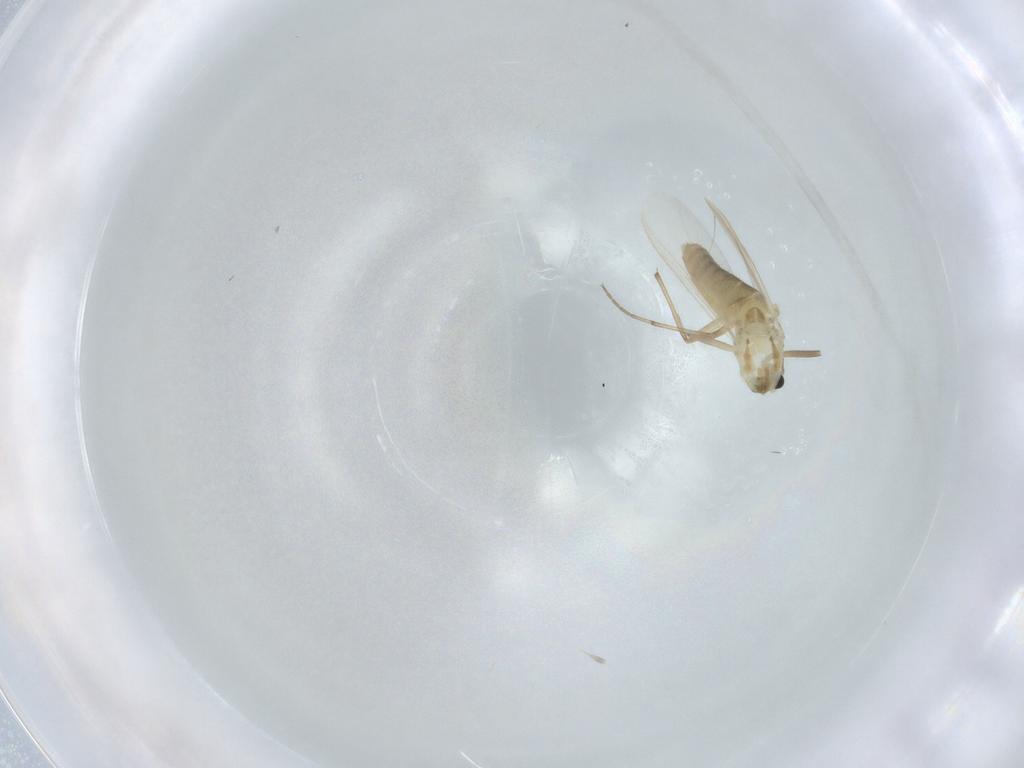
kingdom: Animalia
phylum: Arthropoda
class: Insecta
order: Diptera
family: Chironomidae
